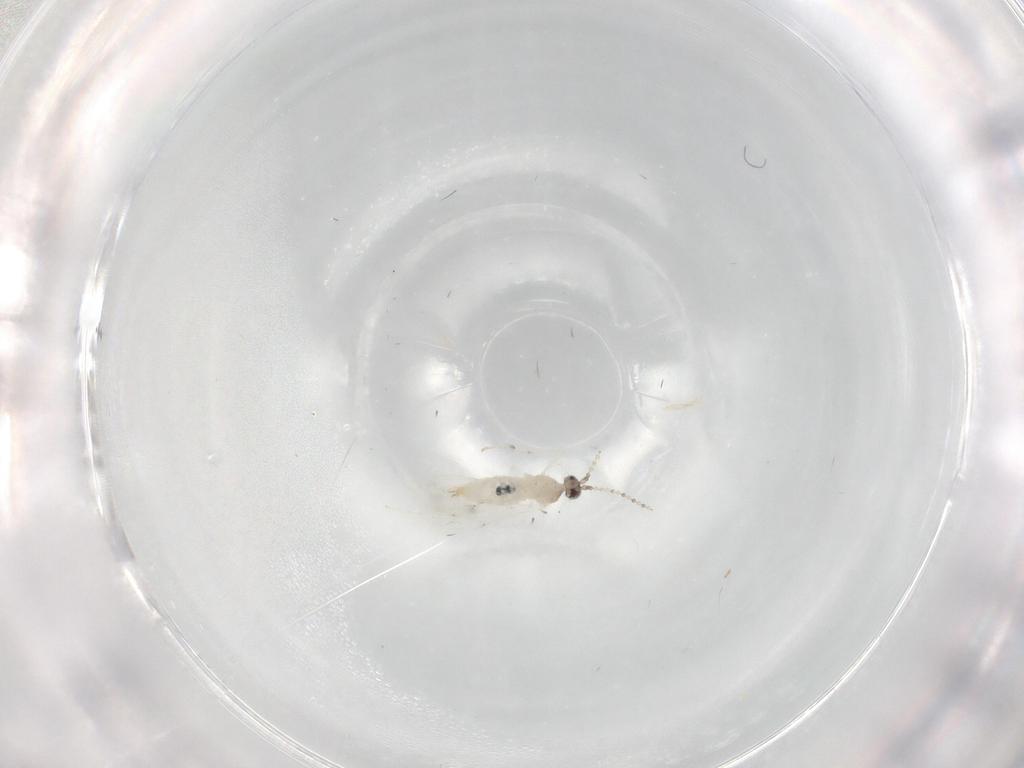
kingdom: Animalia
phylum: Arthropoda
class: Insecta
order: Diptera
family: Cecidomyiidae
